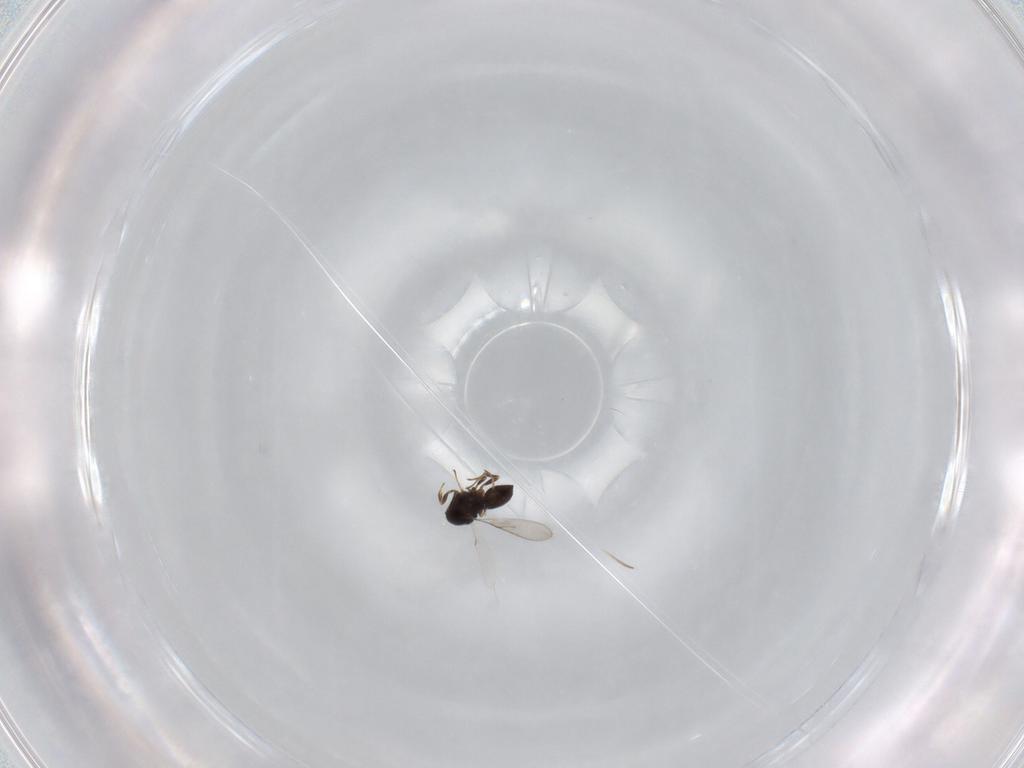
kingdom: Animalia
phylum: Arthropoda
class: Insecta
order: Hymenoptera
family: Scelionidae
